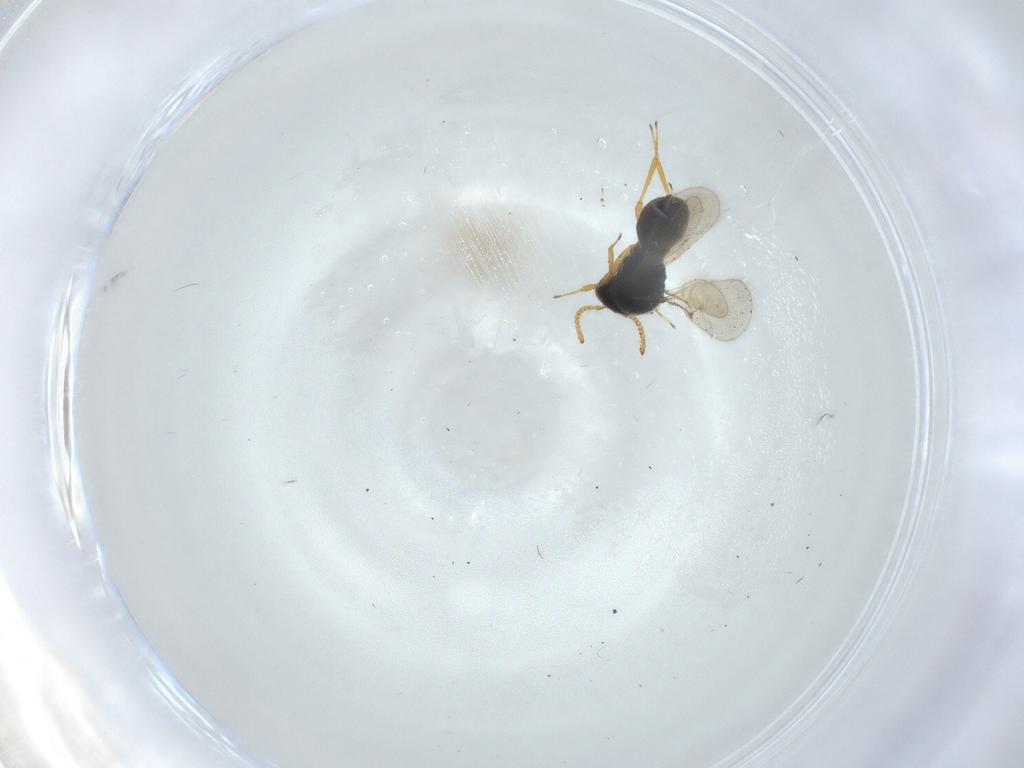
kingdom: Animalia
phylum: Arthropoda
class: Insecta
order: Hymenoptera
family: Scelionidae
